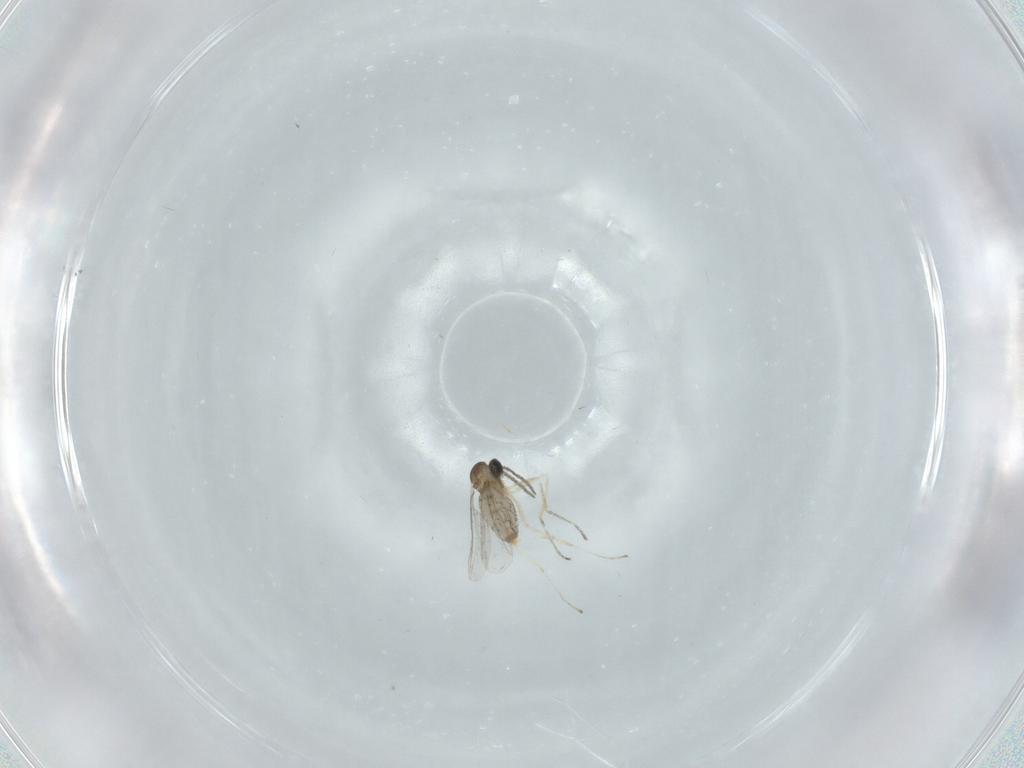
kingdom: Animalia
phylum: Arthropoda
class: Insecta
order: Diptera
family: Cecidomyiidae
